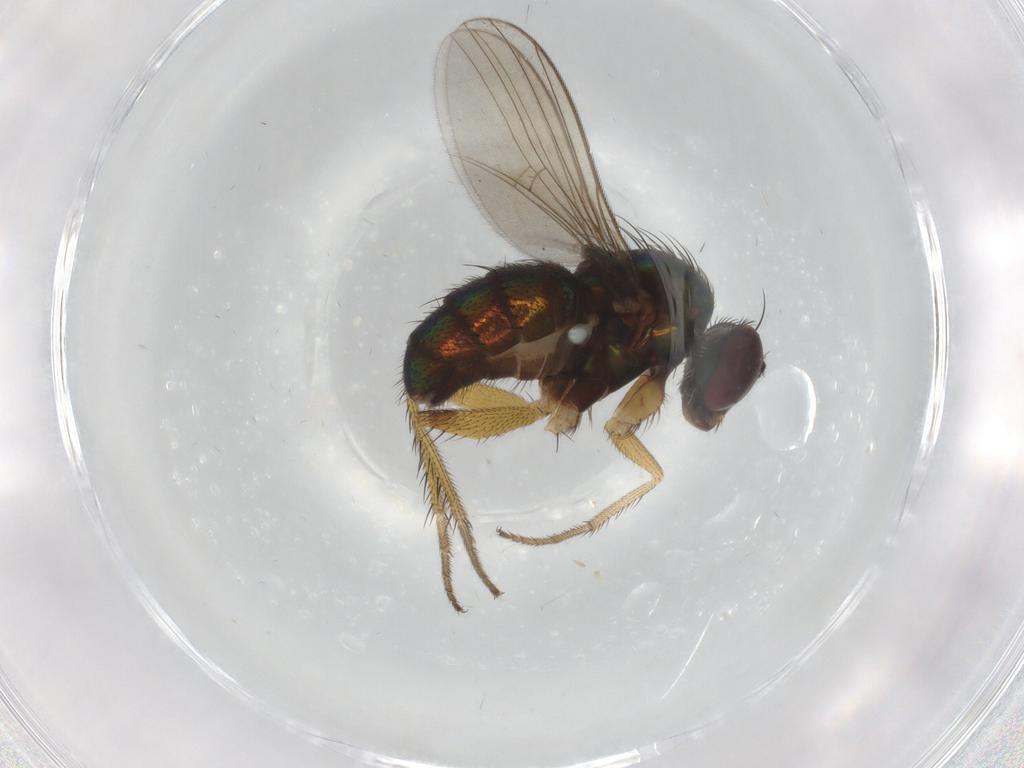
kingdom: Animalia
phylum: Arthropoda
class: Insecta
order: Diptera
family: Dolichopodidae
